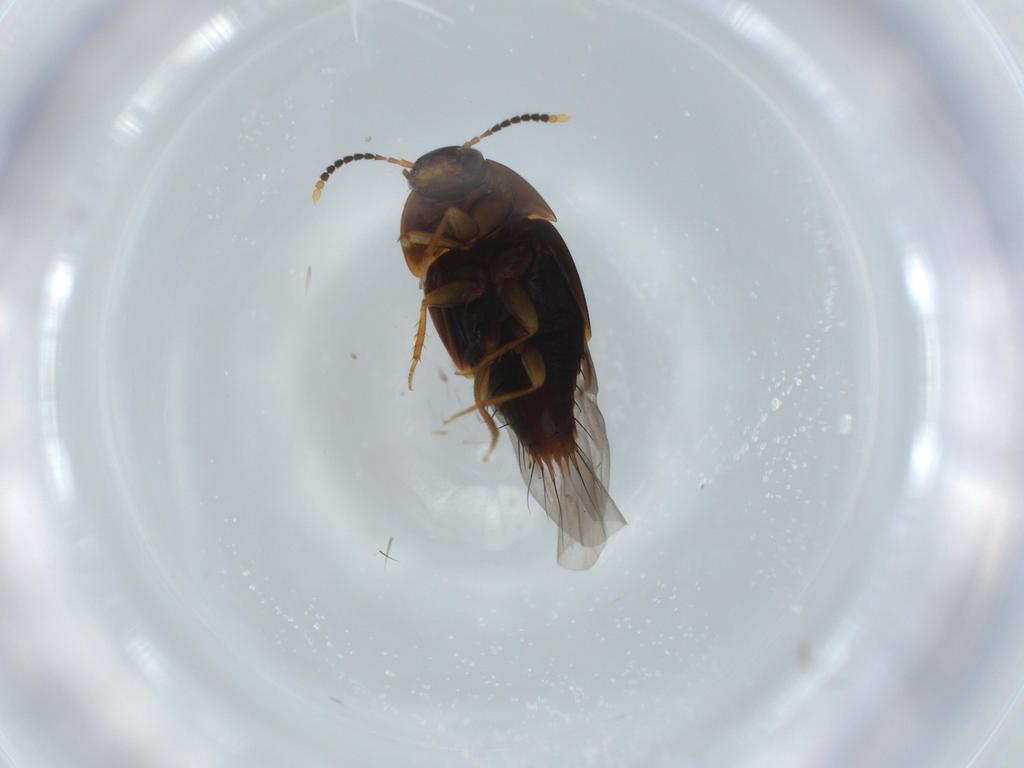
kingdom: Animalia
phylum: Arthropoda
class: Insecta
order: Coleoptera
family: Staphylinidae
